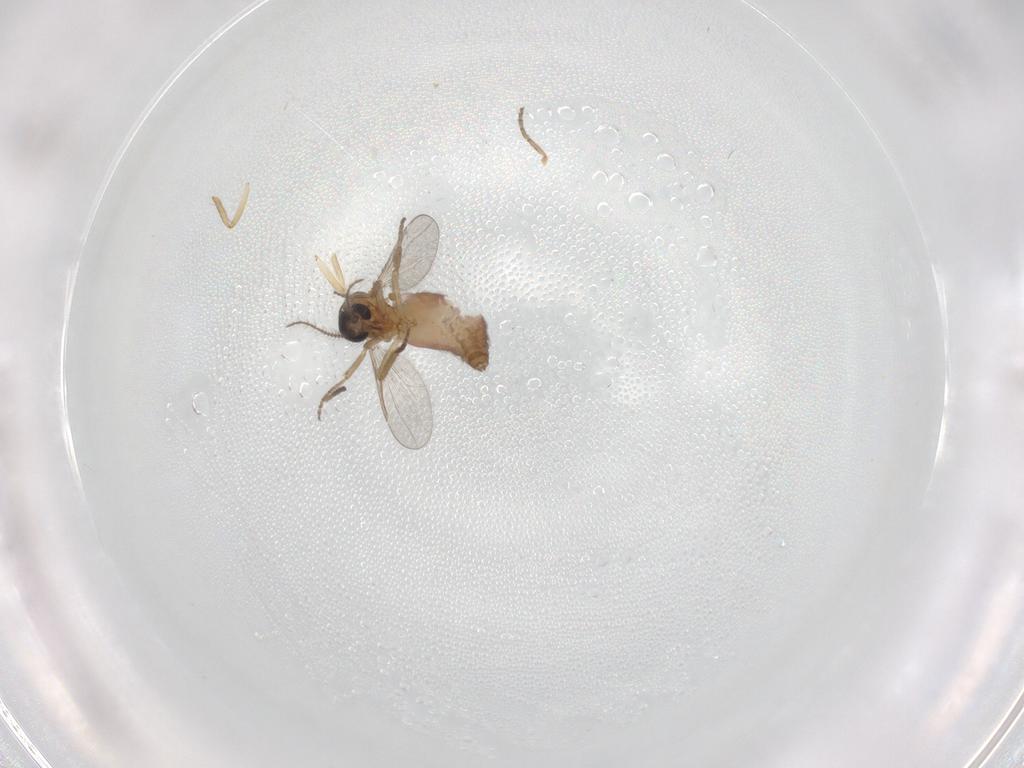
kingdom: Animalia
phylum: Arthropoda
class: Insecta
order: Diptera
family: Ceratopogonidae
